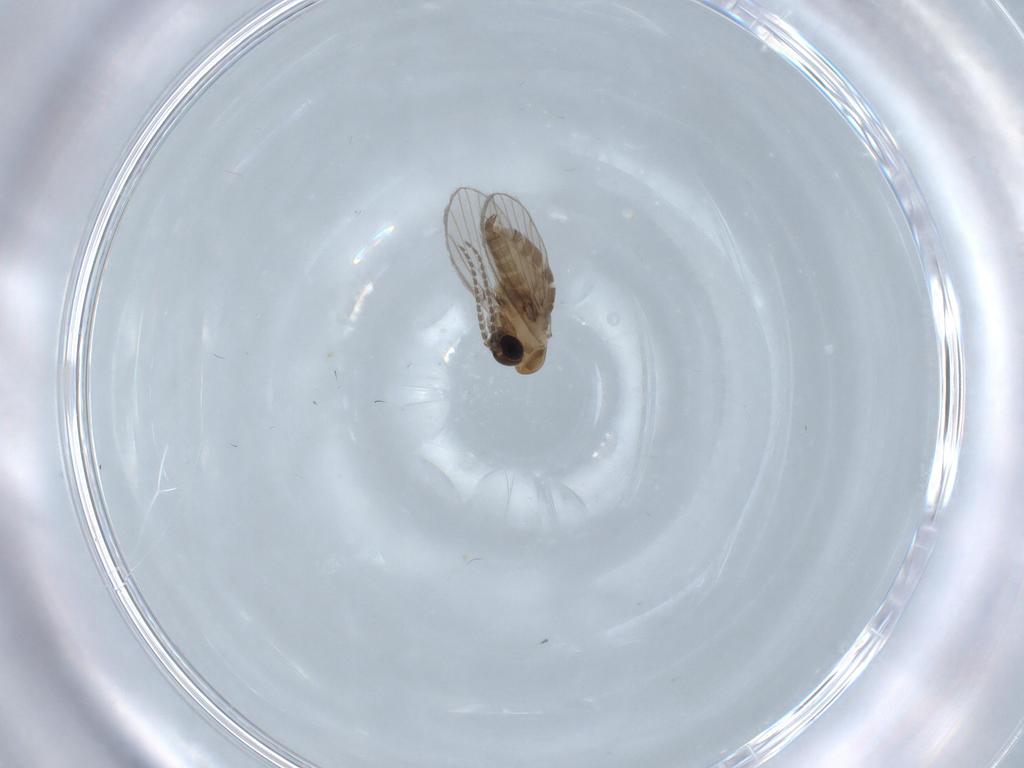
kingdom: Animalia
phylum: Arthropoda
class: Insecta
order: Diptera
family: Psychodidae
